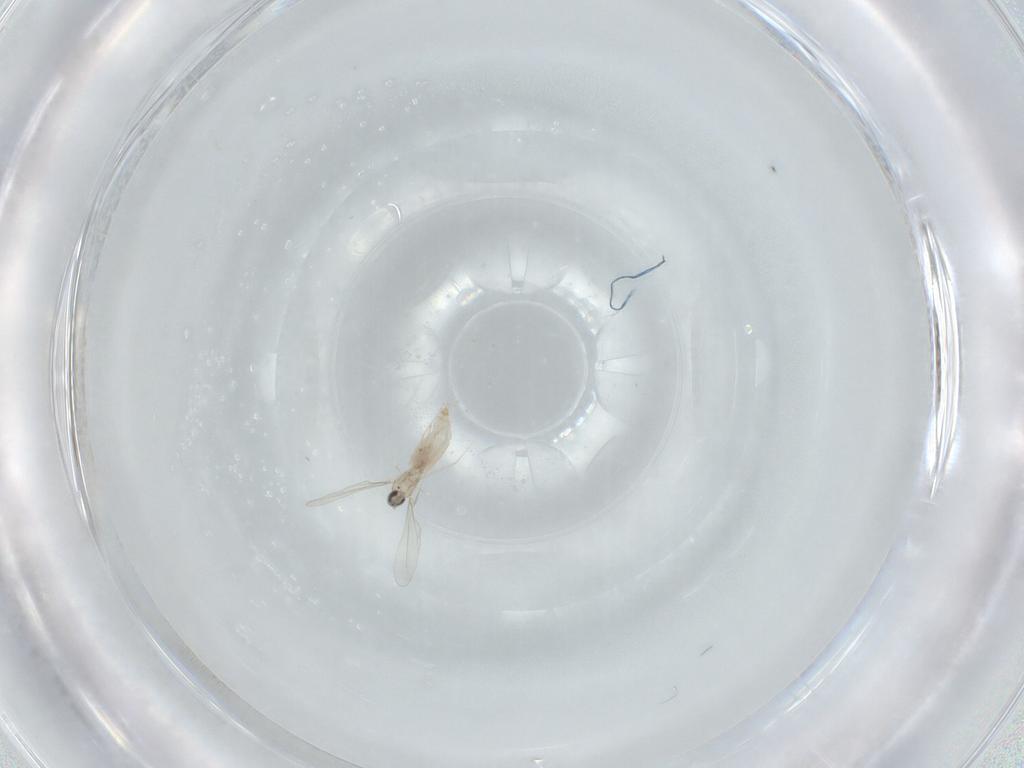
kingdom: Animalia
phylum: Arthropoda
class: Insecta
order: Diptera
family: Cecidomyiidae
